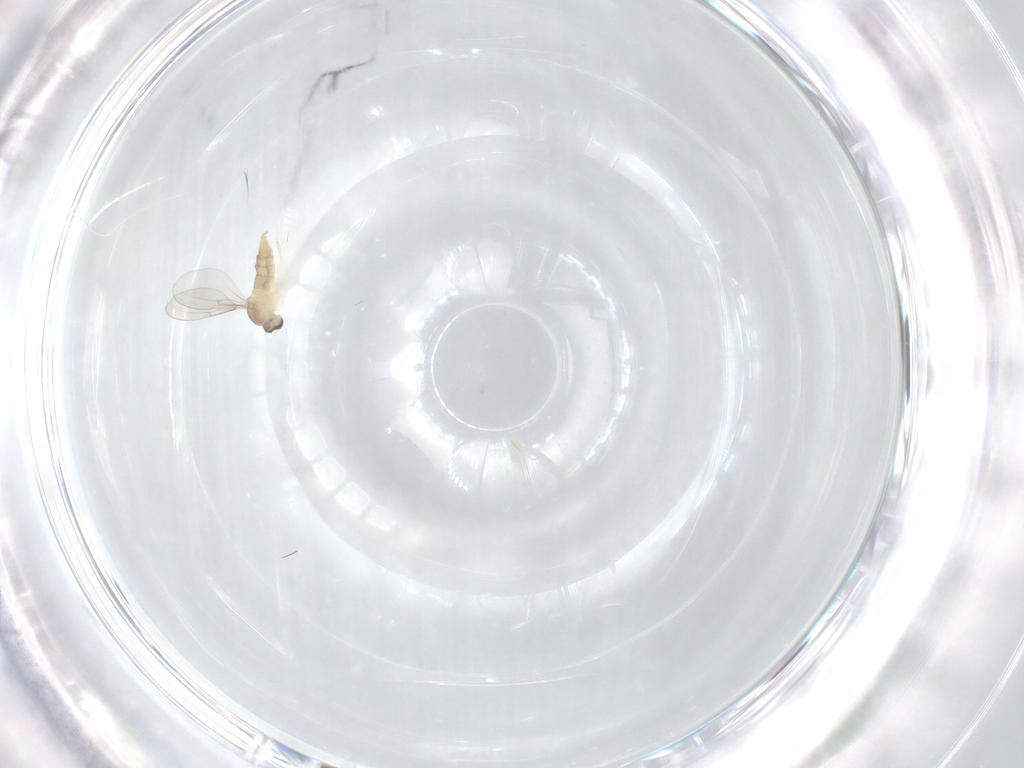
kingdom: Animalia
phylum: Arthropoda
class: Insecta
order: Diptera
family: Cecidomyiidae
